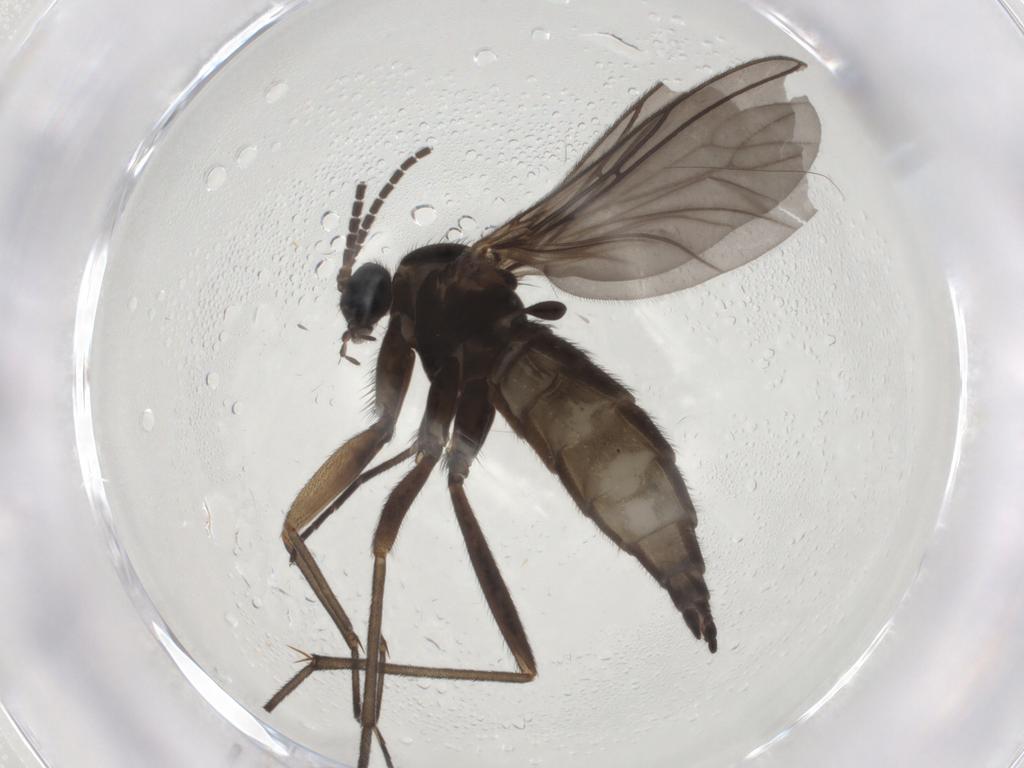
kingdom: Animalia
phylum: Arthropoda
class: Insecta
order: Diptera
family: Sciaridae
